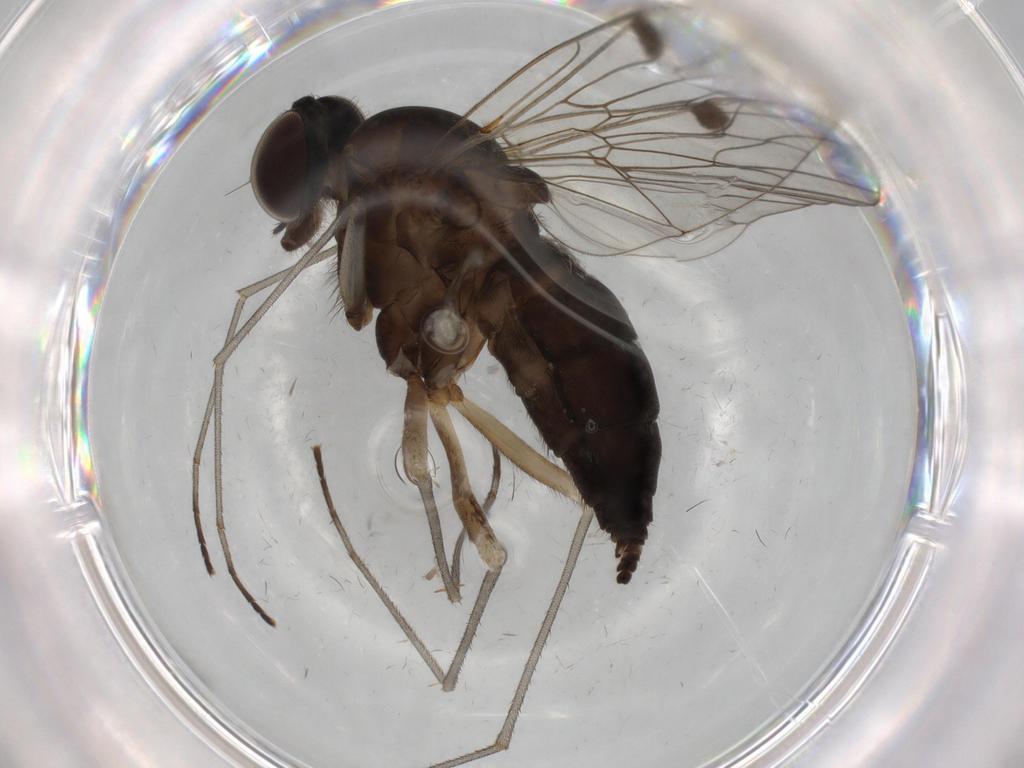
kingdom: Animalia
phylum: Arthropoda
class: Insecta
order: Diptera
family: Cecidomyiidae
